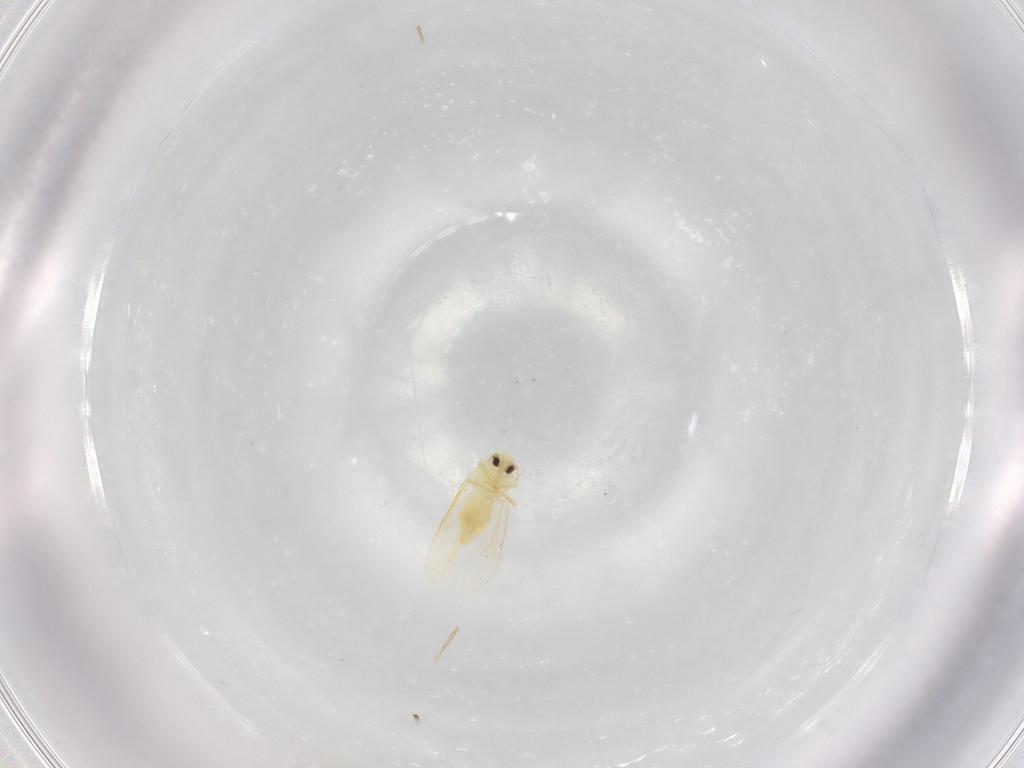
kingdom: Animalia
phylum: Arthropoda
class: Insecta
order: Hemiptera
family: Aleyrodidae
